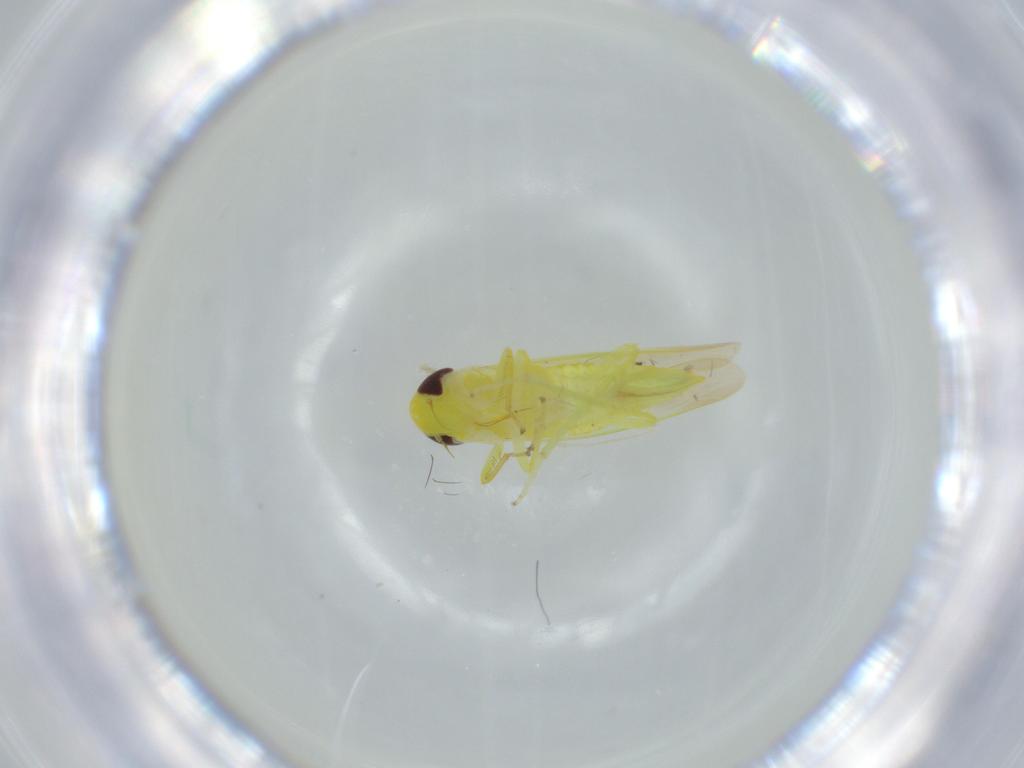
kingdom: Animalia
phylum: Arthropoda
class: Insecta
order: Hemiptera
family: Cicadellidae
